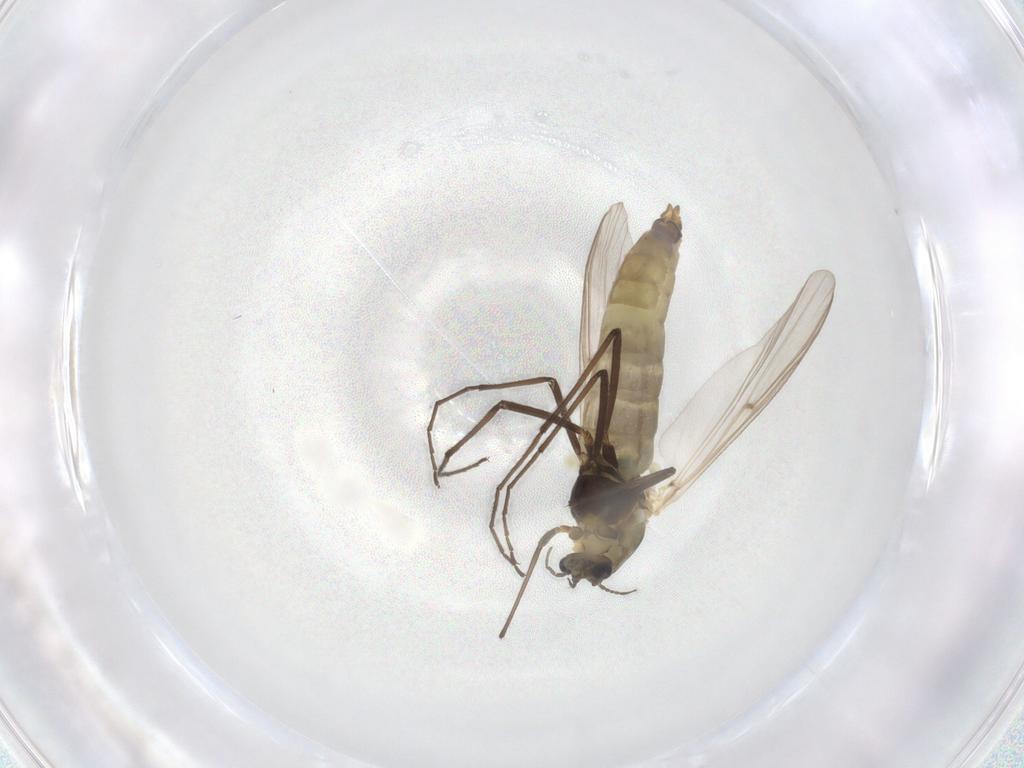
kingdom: Animalia
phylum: Arthropoda
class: Insecta
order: Diptera
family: Chironomidae
